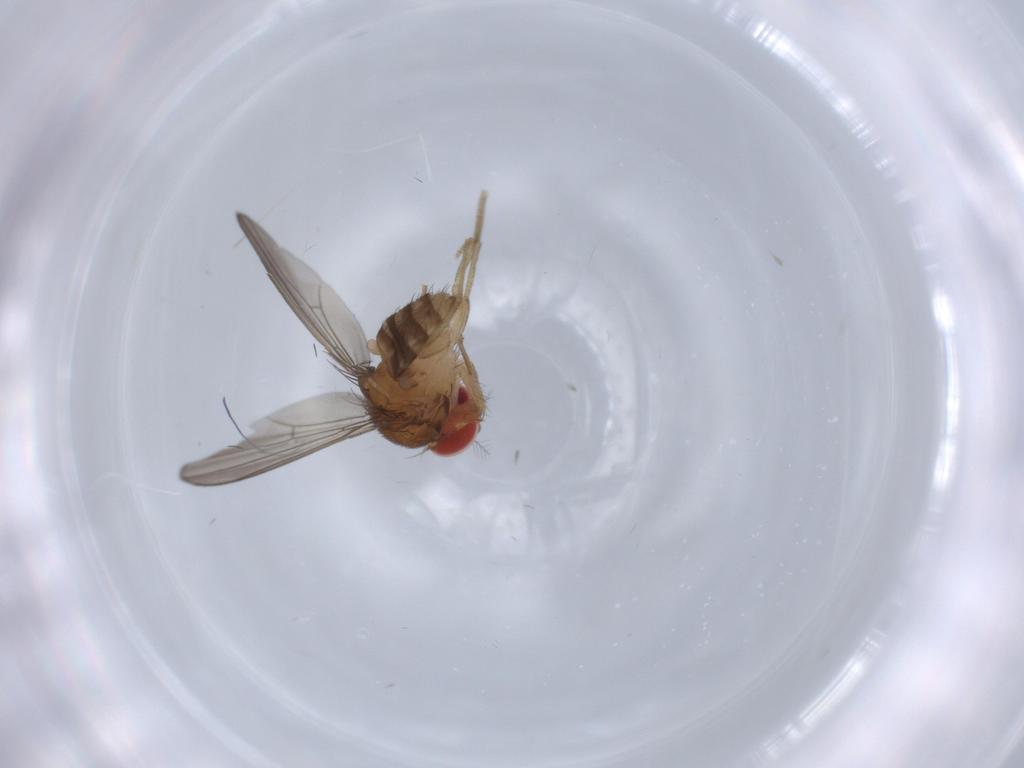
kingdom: Animalia
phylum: Arthropoda
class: Insecta
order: Diptera
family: Drosophilidae
